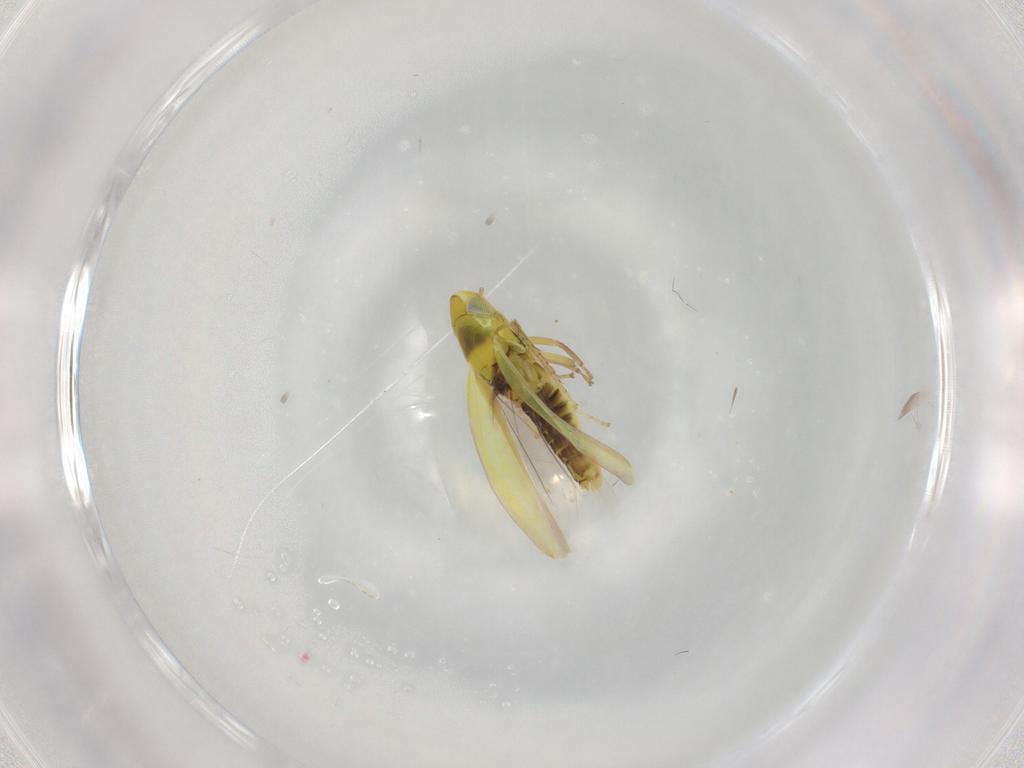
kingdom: Animalia
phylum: Arthropoda
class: Insecta
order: Hemiptera
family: Cicadellidae
